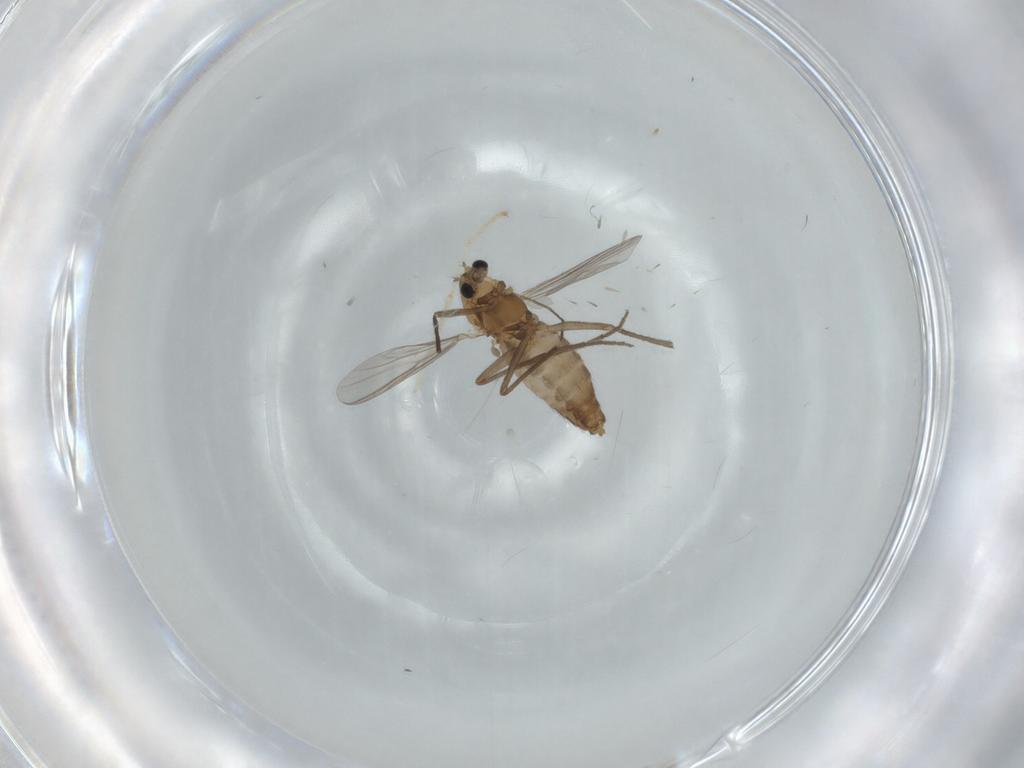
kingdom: Animalia
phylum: Arthropoda
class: Insecta
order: Diptera
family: Chironomidae
